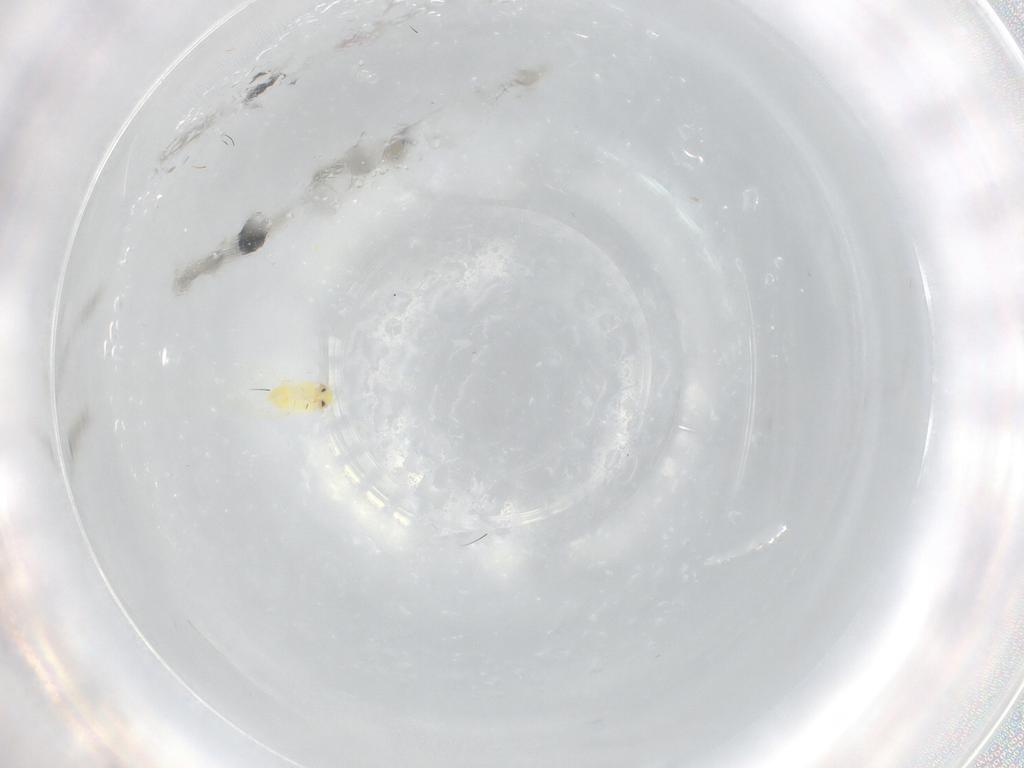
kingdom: Animalia
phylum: Arthropoda
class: Insecta
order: Hemiptera
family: Aleyrodidae
